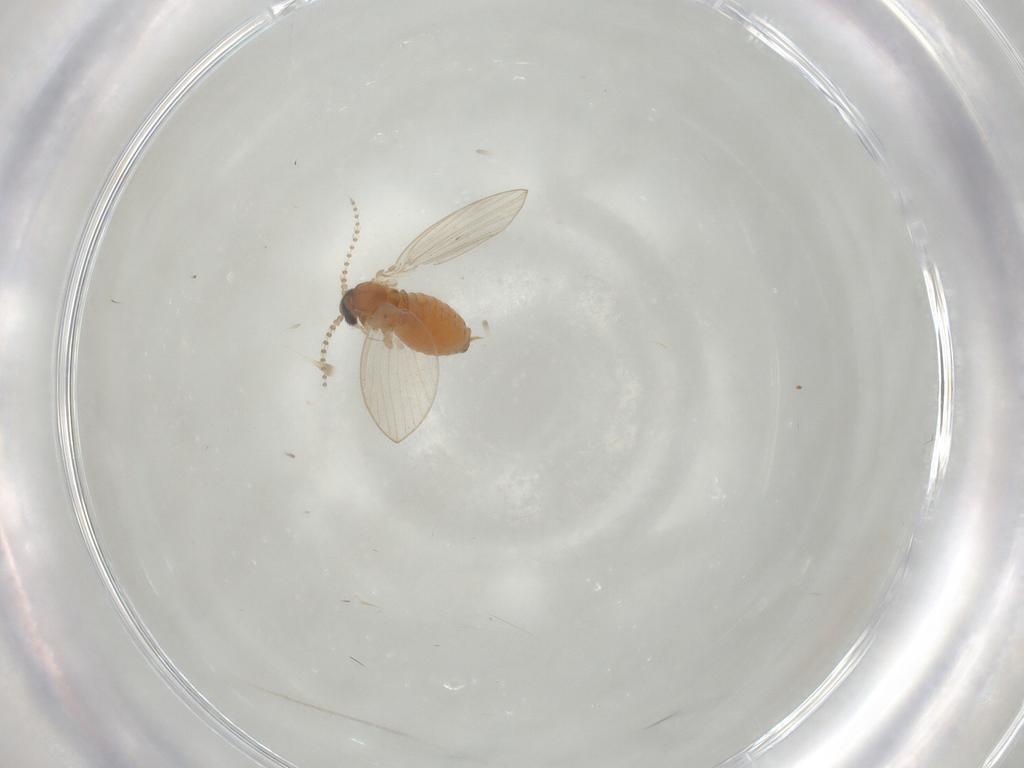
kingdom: Animalia
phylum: Arthropoda
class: Insecta
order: Diptera
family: Psychodidae
